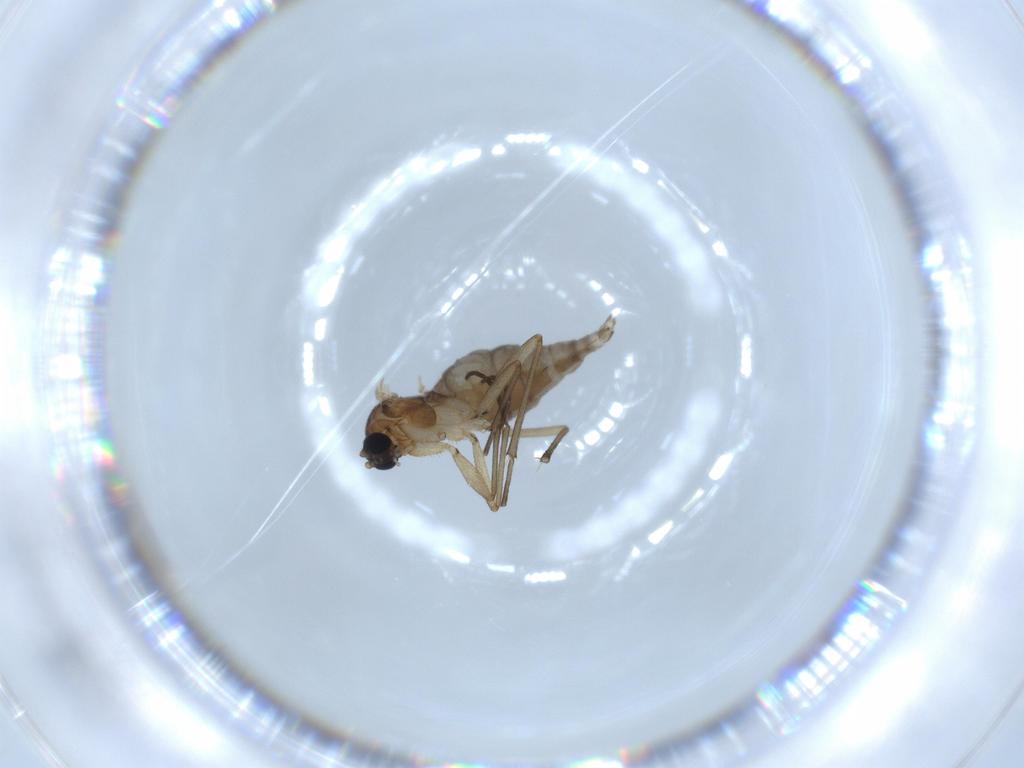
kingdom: Animalia
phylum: Arthropoda
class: Insecta
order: Diptera
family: Sciaridae
